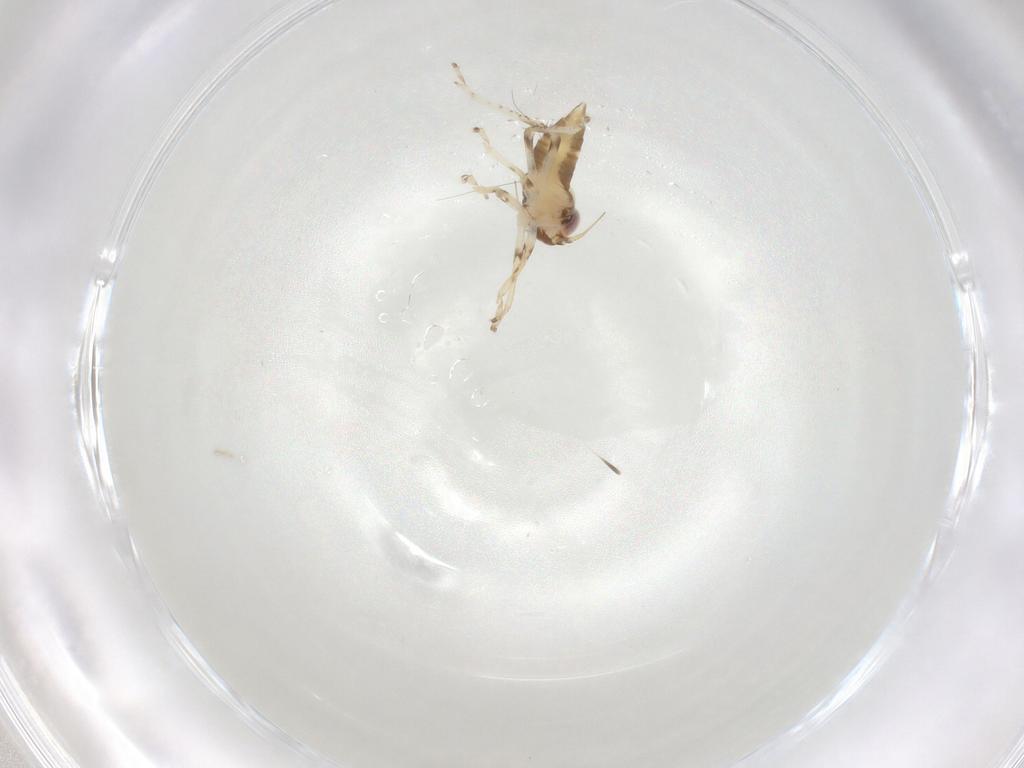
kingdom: Animalia
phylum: Arthropoda
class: Insecta
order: Hemiptera
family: Cicadellidae
